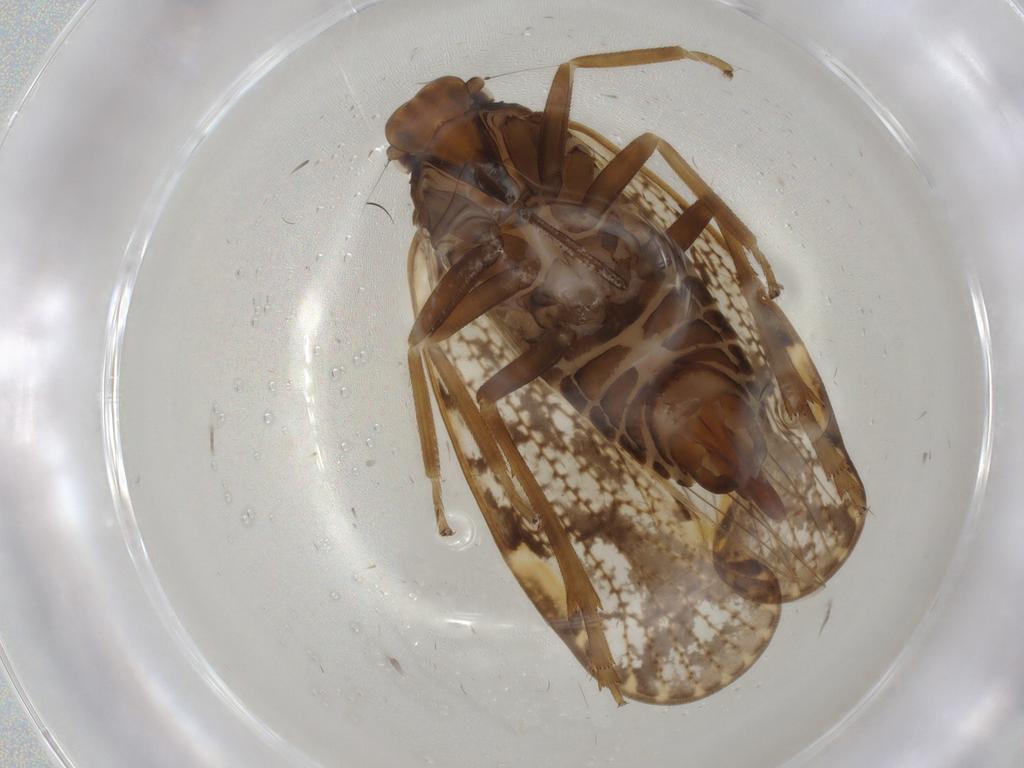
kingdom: Animalia
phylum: Arthropoda
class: Insecta
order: Hemiptera
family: Cixiidae
